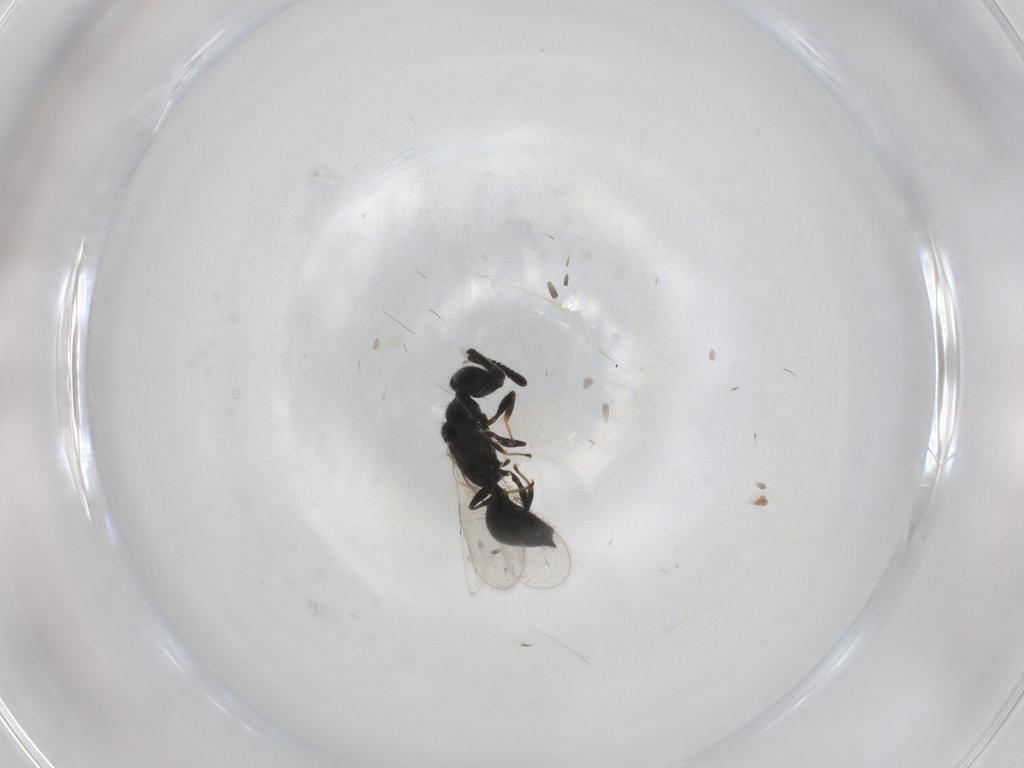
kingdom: Animalia
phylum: Arthropoda
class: Insecta
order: Hymenoptera
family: Spalangiidae
